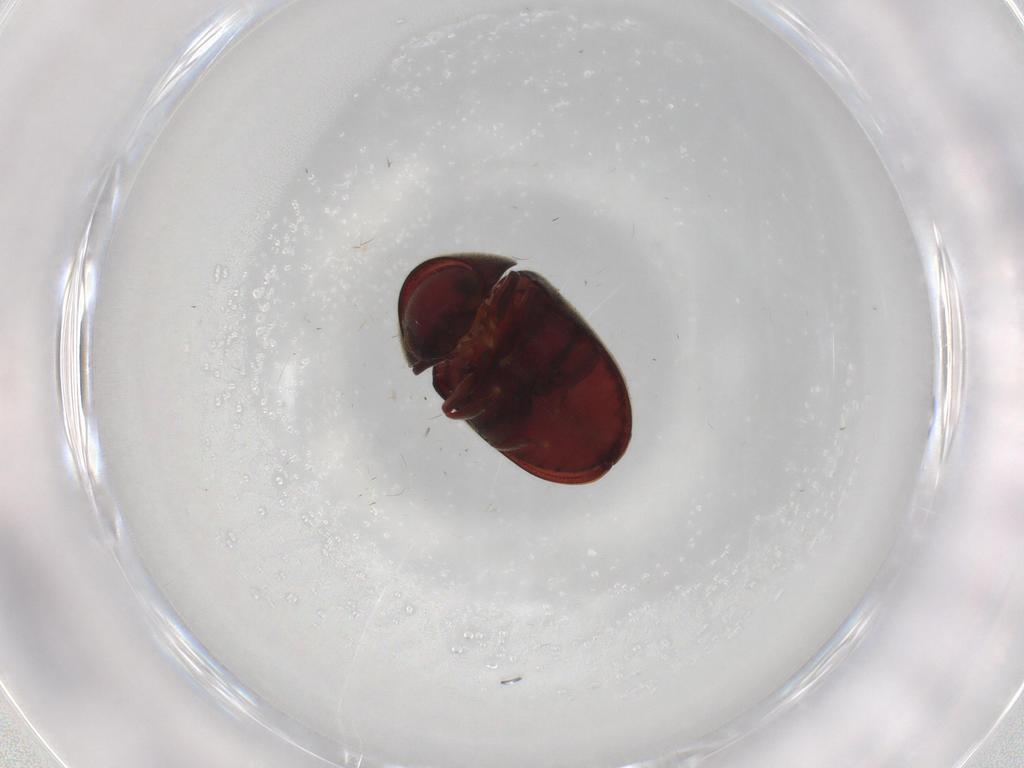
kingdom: Animalia
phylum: Arthropoda
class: Insecta
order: Coleoptera
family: Ptinidae
